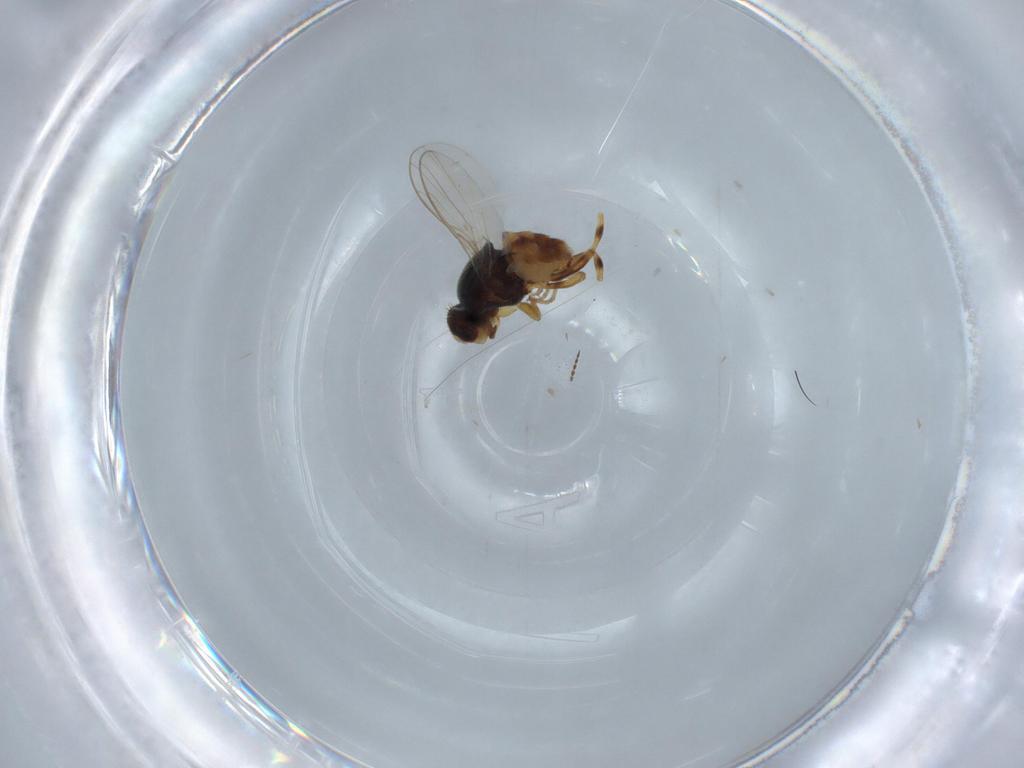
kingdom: Animalia
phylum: Arthropoda
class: Insecta
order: Diptera
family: Chloropidae
